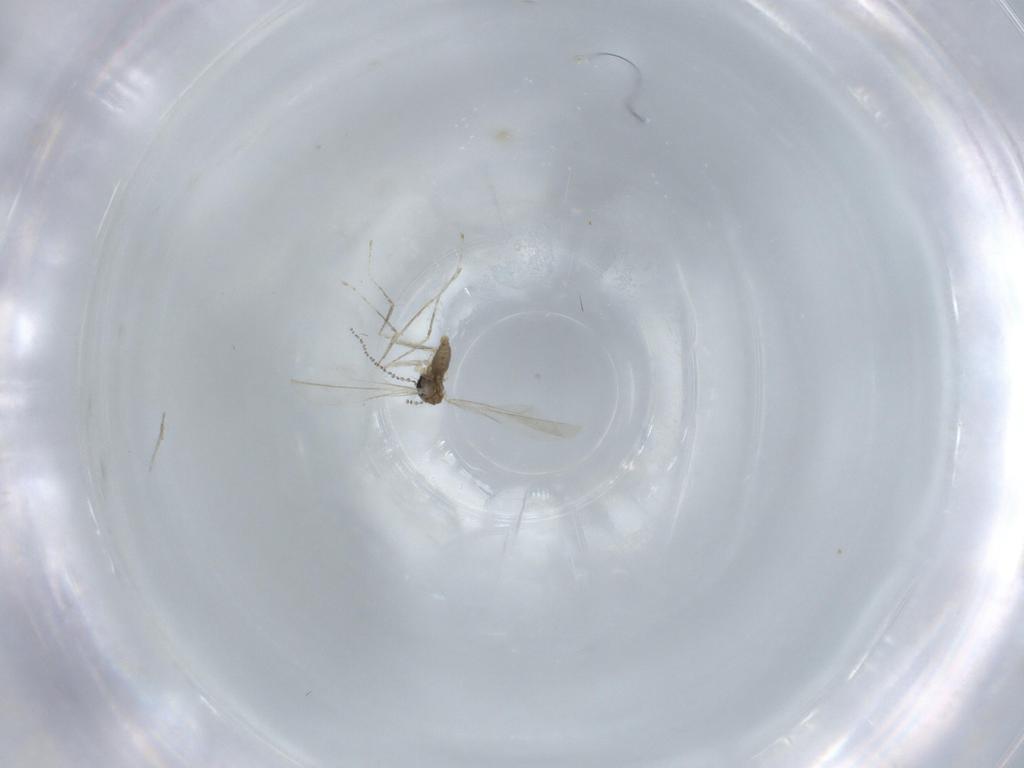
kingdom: Animalia
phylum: Arthropoda
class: Insecta
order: Diptera
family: Cecidomyiidae
